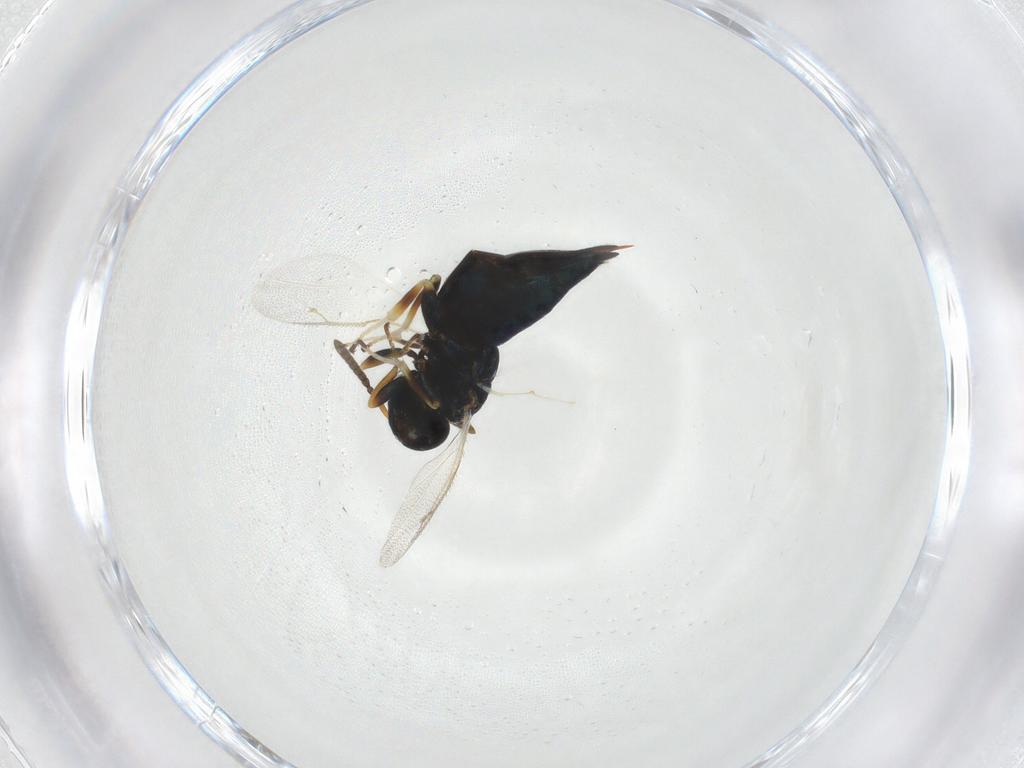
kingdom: Animalia
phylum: Arthropoda
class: Insecta
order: Hymenoptera
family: Pteromalidae
